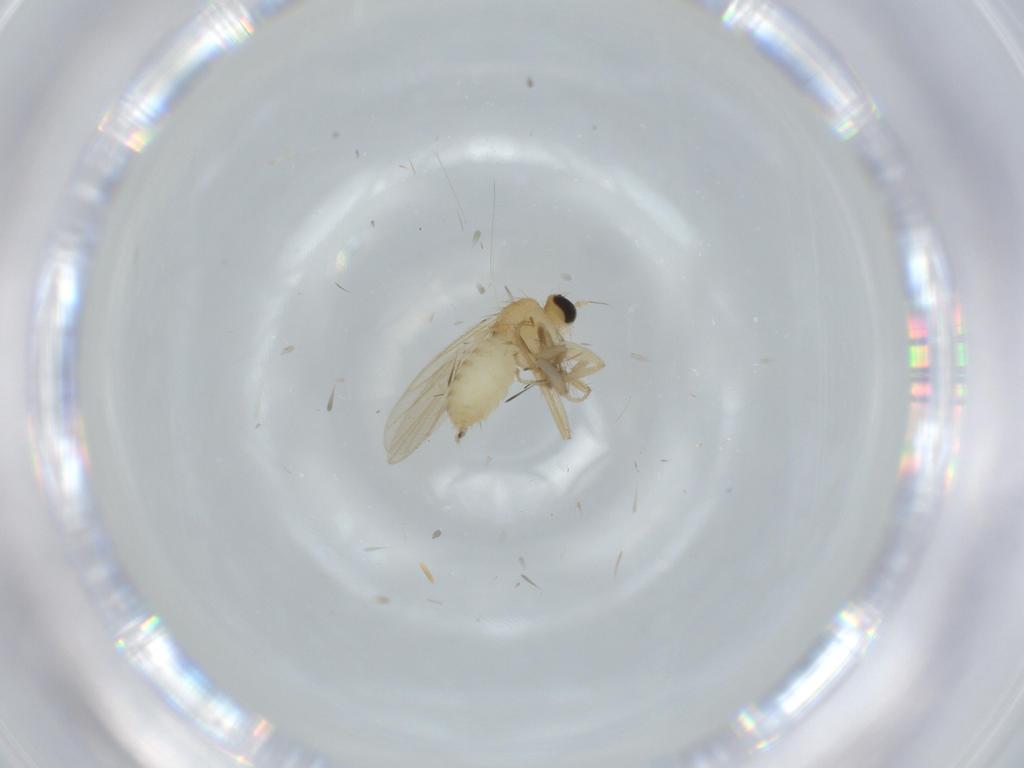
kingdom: Animalia
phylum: Arthropoda
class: Insecta
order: Diptera
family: Hybotidae
